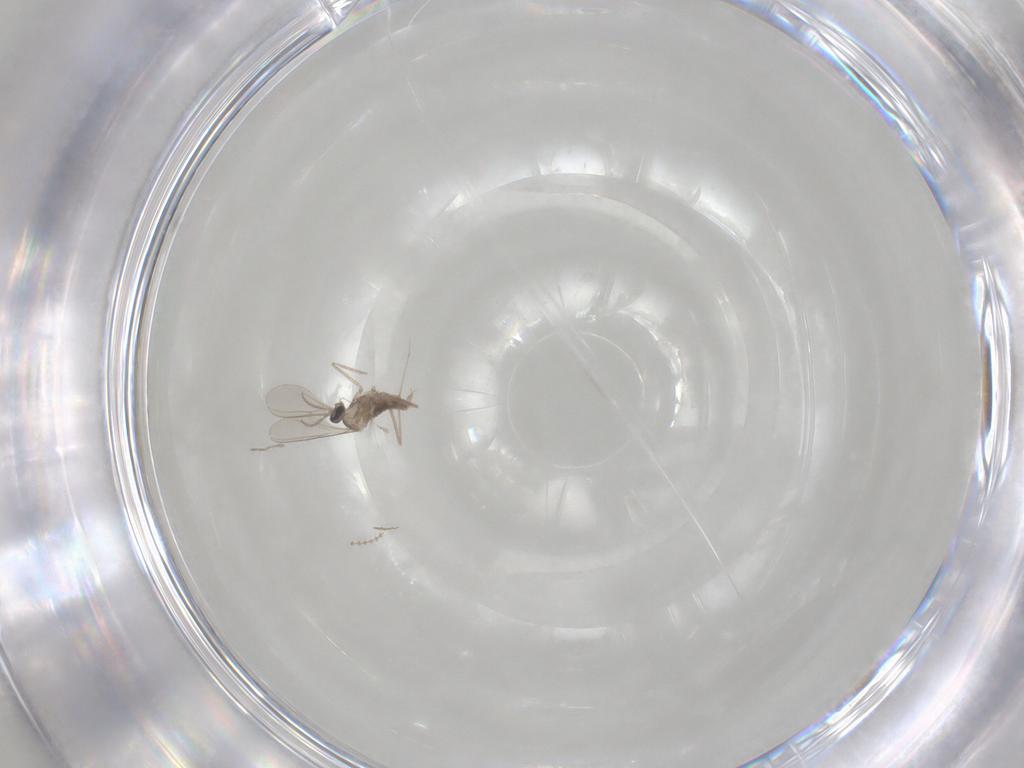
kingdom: Animalia
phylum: Arthropoda
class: Insecta
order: Diptera
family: Cecidomyiidae
